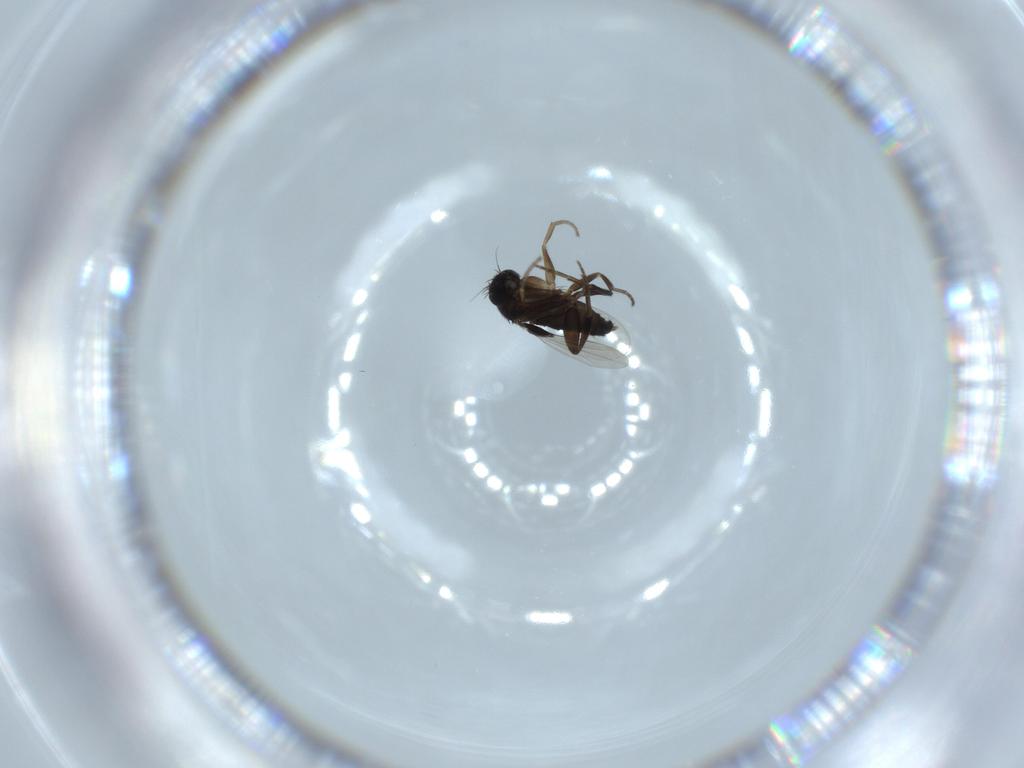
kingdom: Animalia
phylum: Arthropoda
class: Insecta
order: Diptera
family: Phoridae
